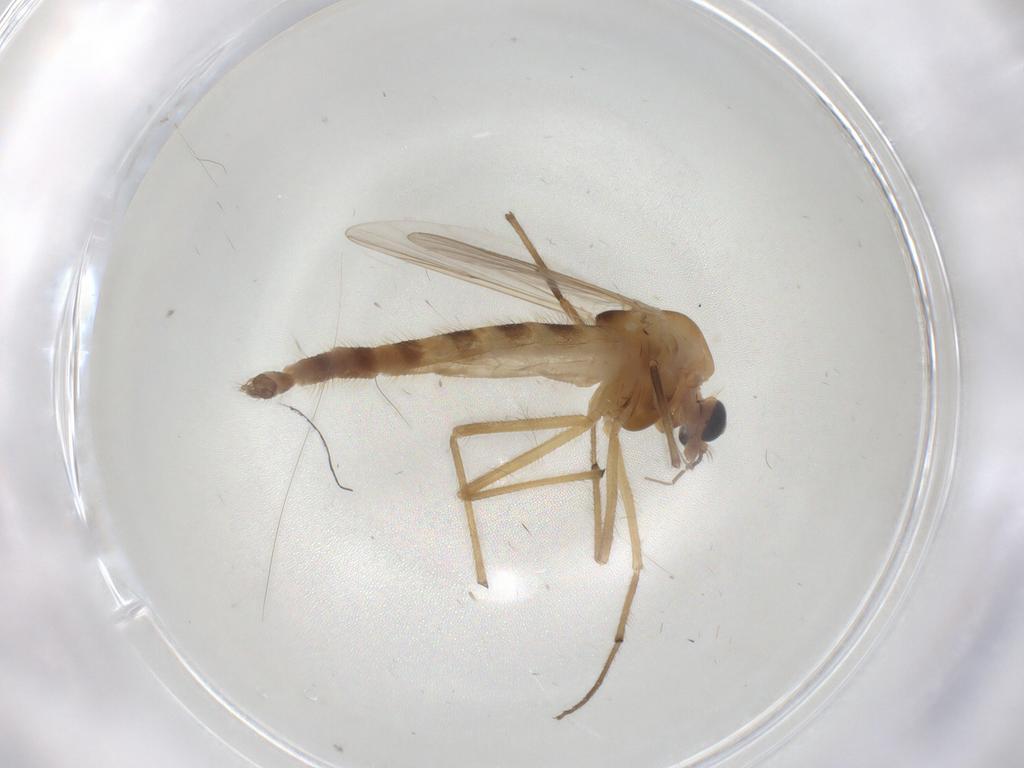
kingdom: Animalia
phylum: Arthropoda
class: Insecta
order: Diptera
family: Chironomidae
